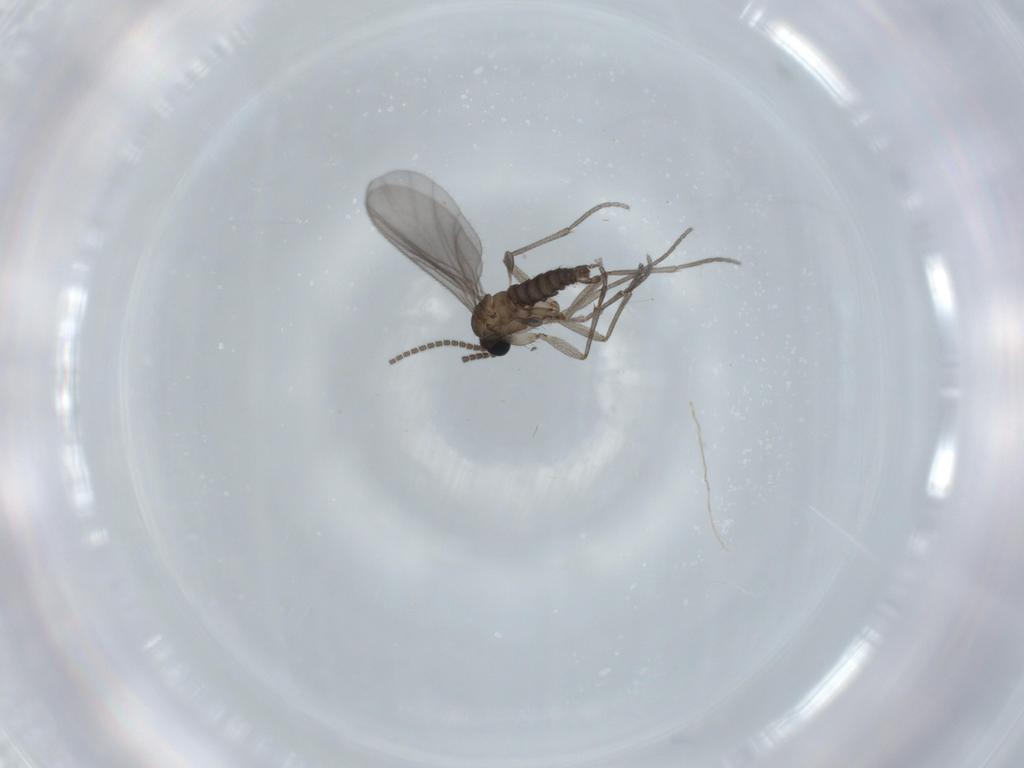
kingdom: Animalia
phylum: Arthropoda
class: Insecta
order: Diptera
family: Sciaridae
